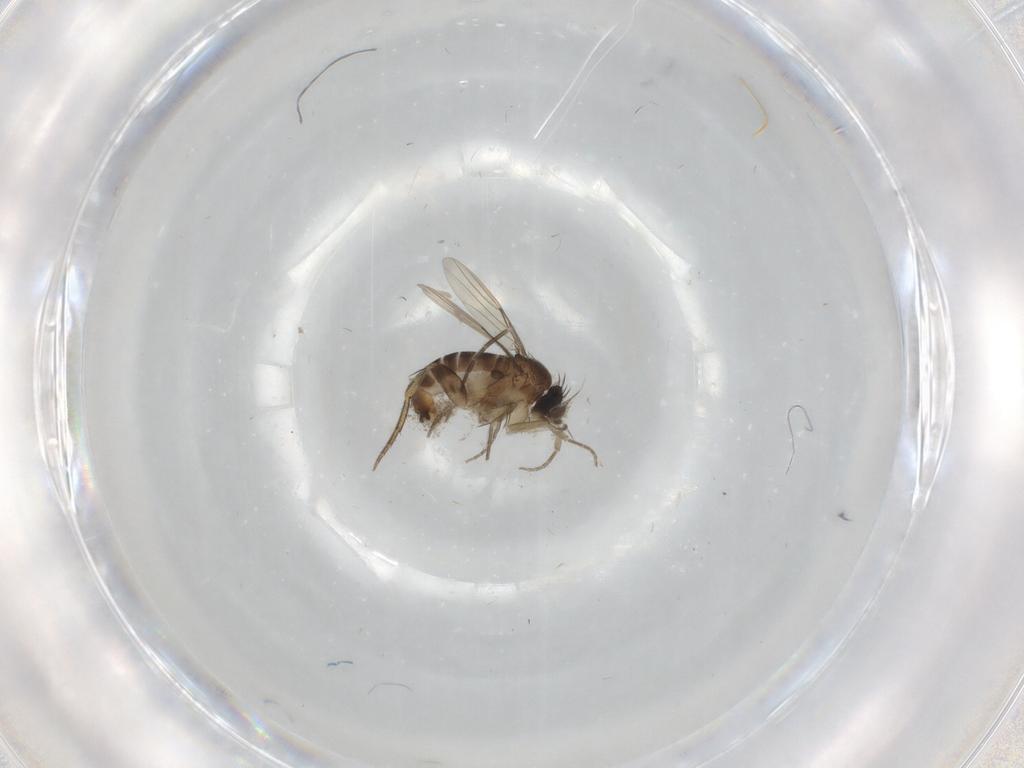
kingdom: Animalia
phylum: Arthropoda
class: Insecta
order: Diptera
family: Cecidomyiidae
